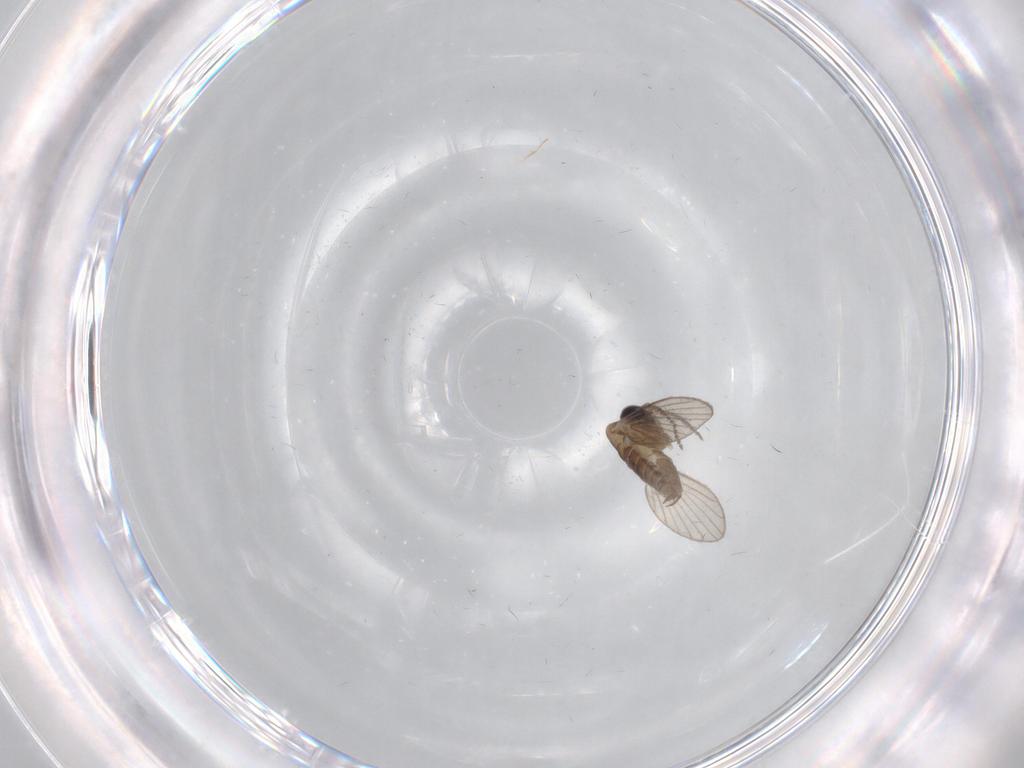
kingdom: Animalia
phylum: Arthropoda
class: Insecta
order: Diptera
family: Psychodidae
